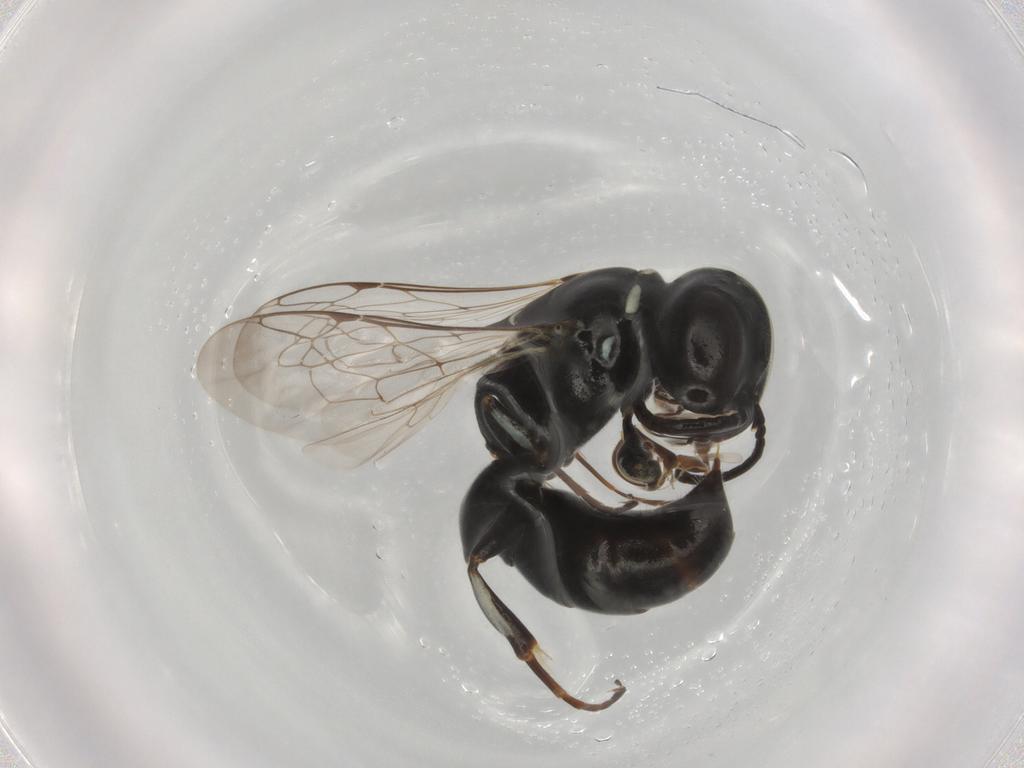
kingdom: Animalia
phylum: Arthropoda
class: Insecta
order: Hymenoptera
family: Crabronidae
